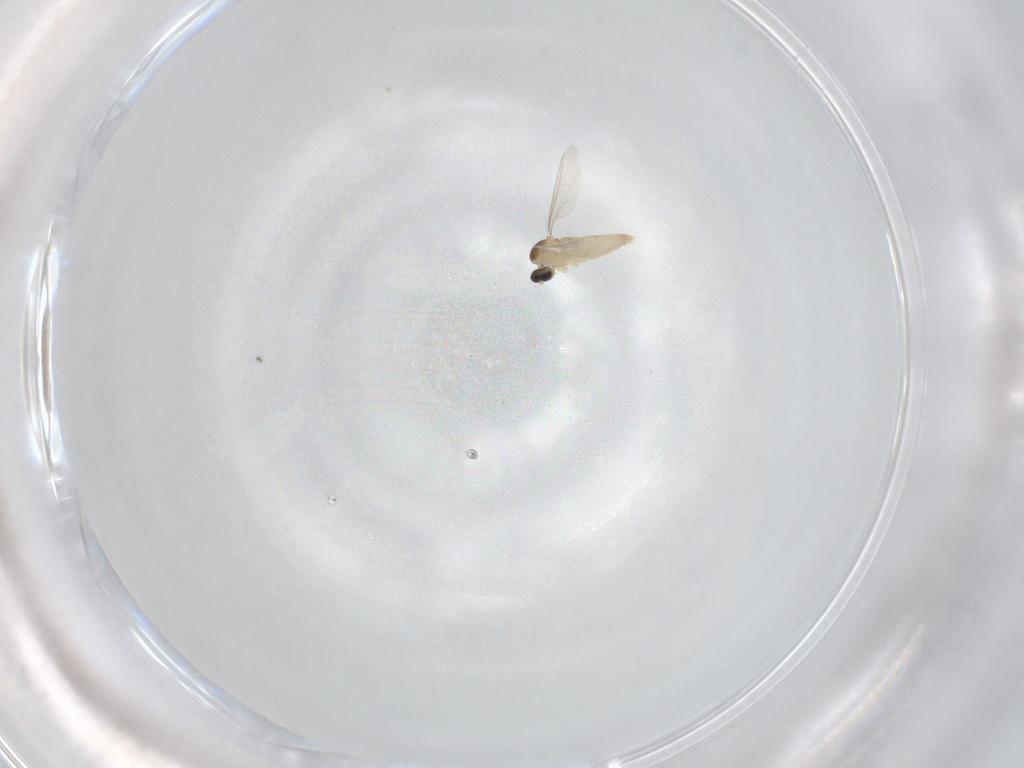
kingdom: Animalia
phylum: Arthropoda
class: Insecta
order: Diptera
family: Cecidomyiidae
